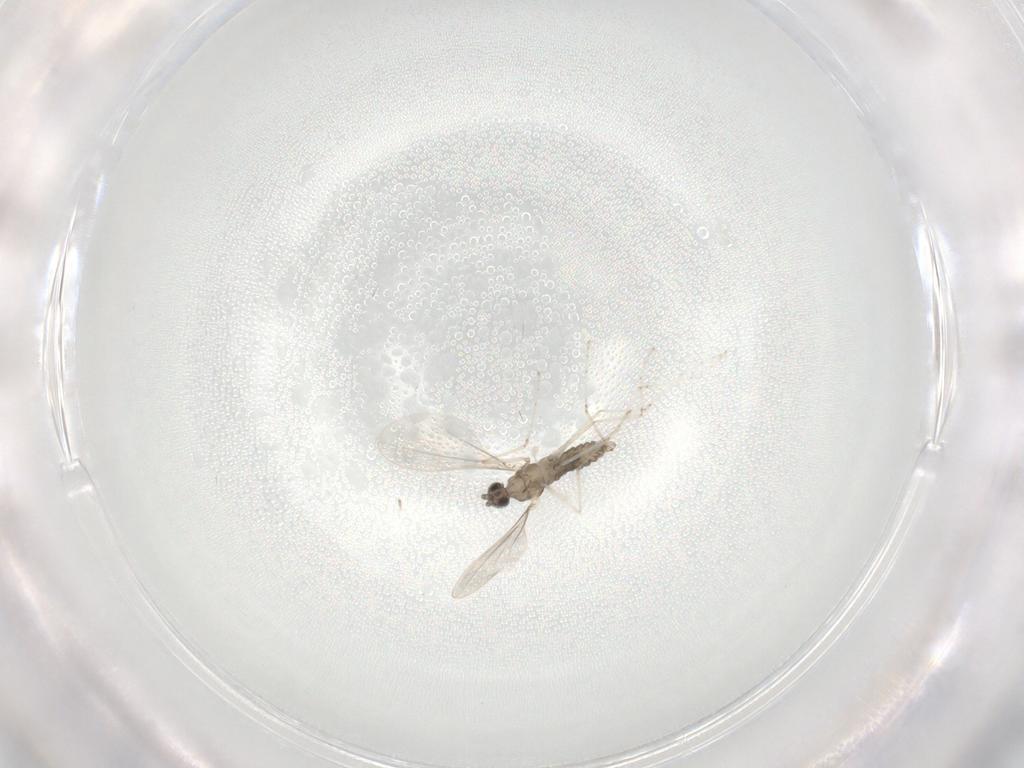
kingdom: Animalia
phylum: Arthropoda
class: Insecta
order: Diptera
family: Cecidomyiidae
